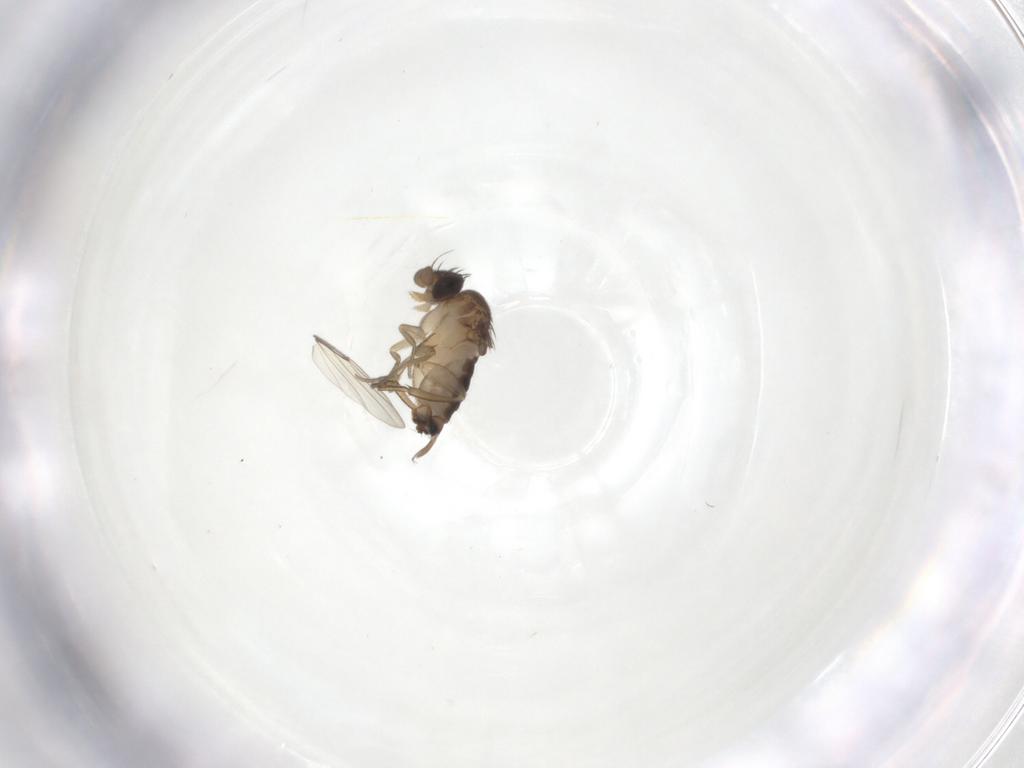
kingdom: Animalia
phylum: Arthropoda
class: Insecta
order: Diptera
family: Phoridae
